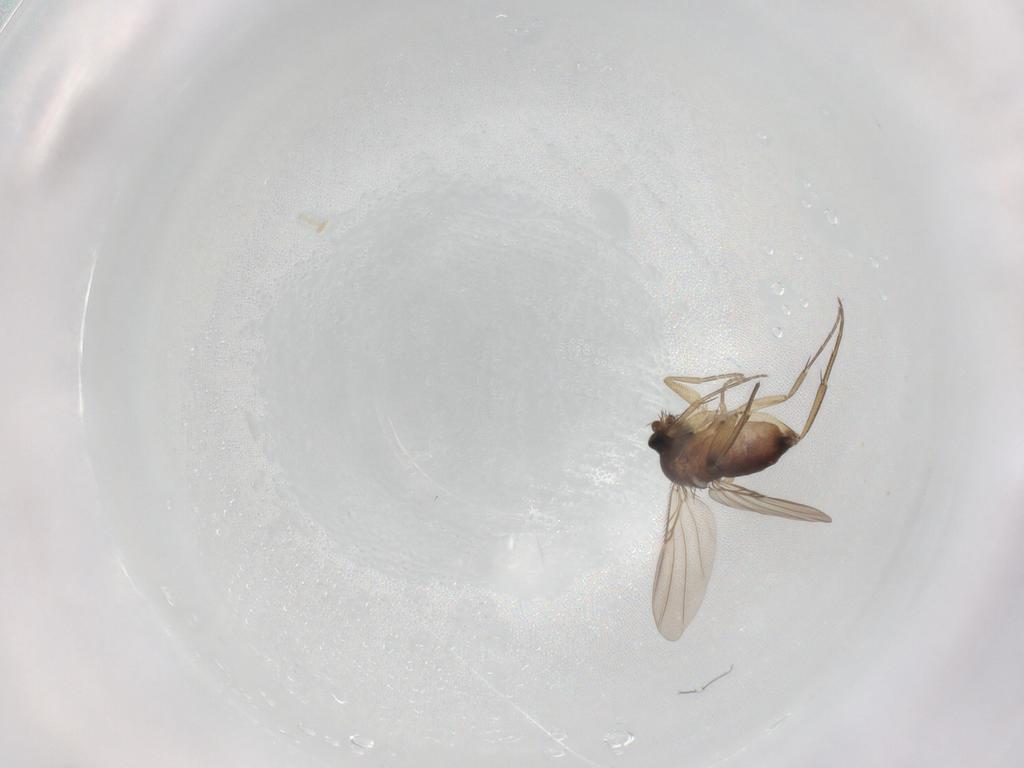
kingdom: Animalia
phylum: Arthropoda
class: Insecta
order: Diptera
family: Phoridae
